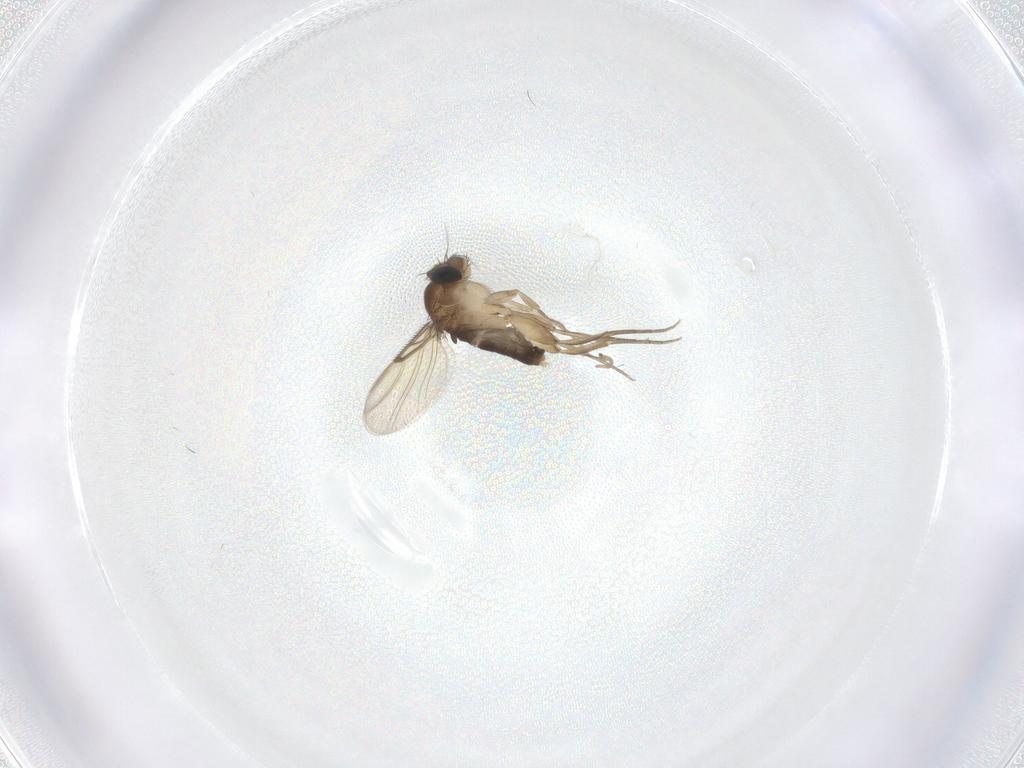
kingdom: Animalia
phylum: Arthropoda
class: Insecta
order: Diptera
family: Phoridae
